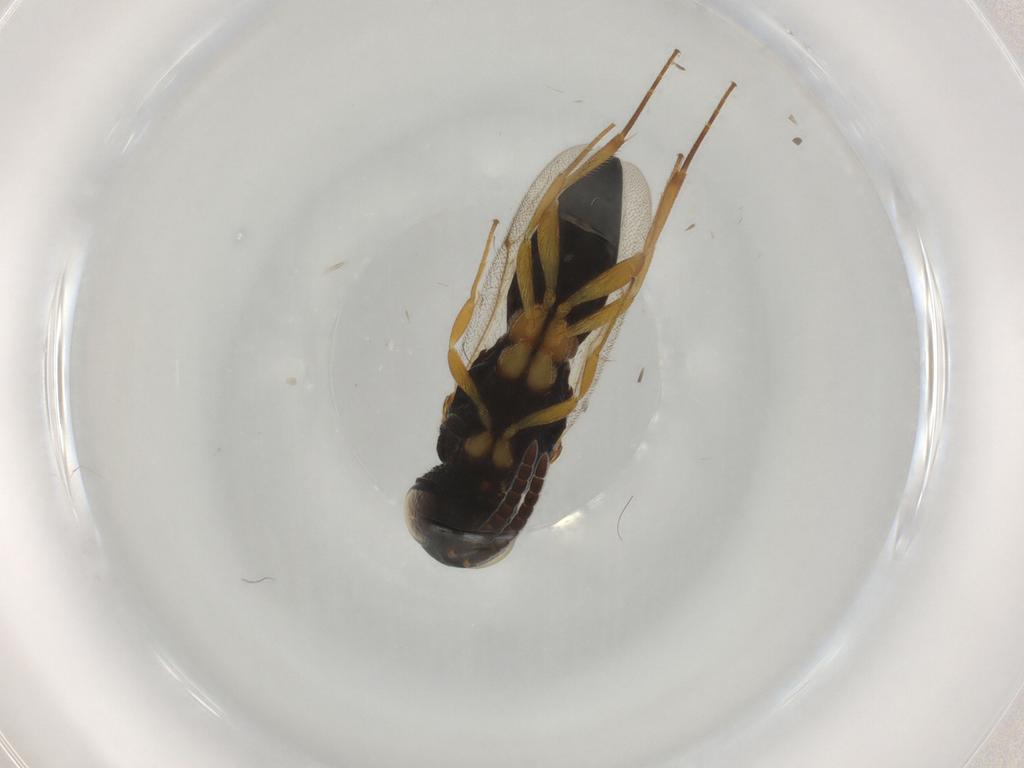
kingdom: Animalia
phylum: Arthropoda
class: Insecta
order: Hymenoptera
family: Scelionidae
